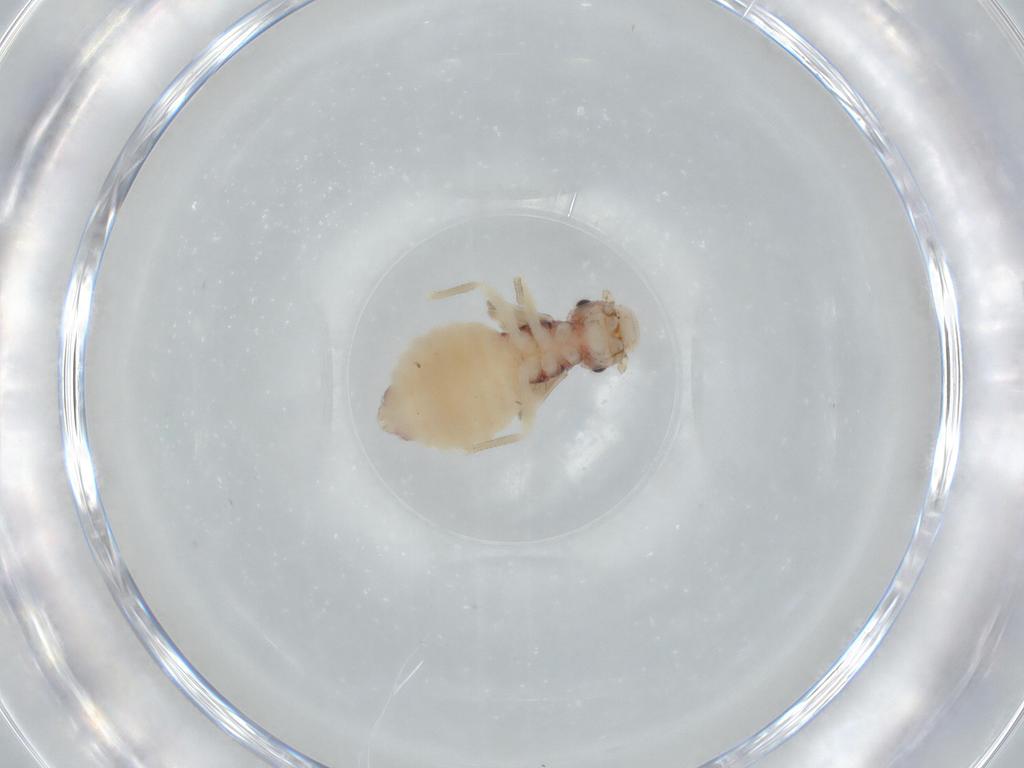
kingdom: Animalia
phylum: Arthropoda
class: Insecta
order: Psocodea
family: Amphipsocidae
